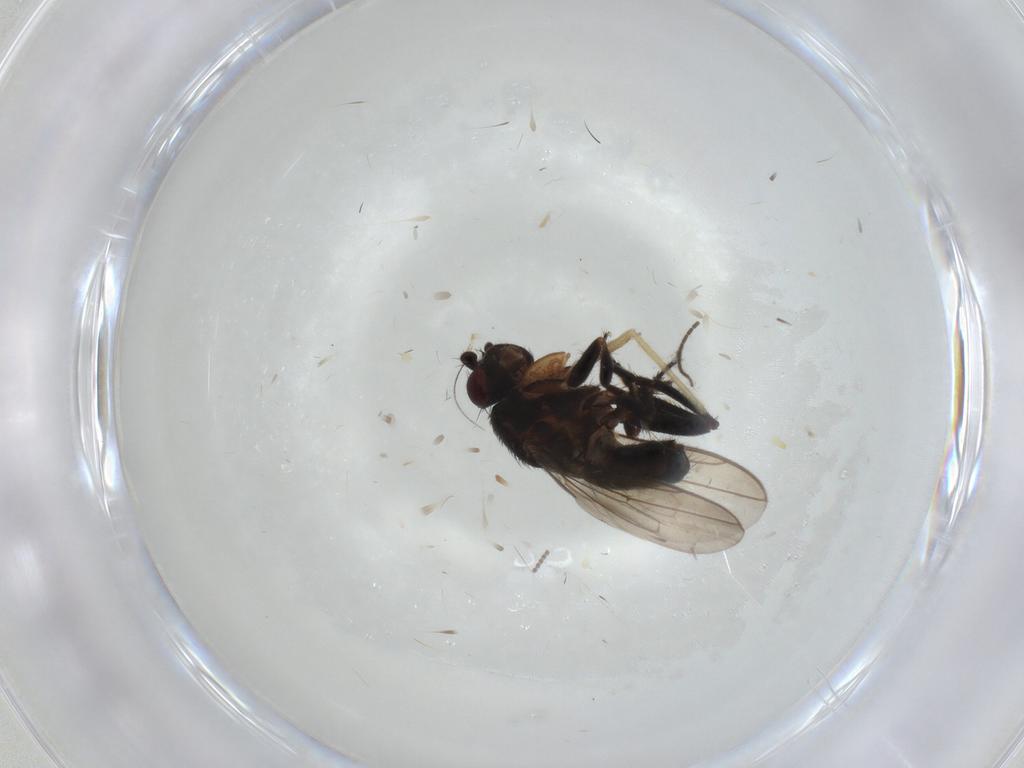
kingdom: Animalia
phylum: Arthropoda
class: Insecta
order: Diptera
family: Sphaeroceridae
